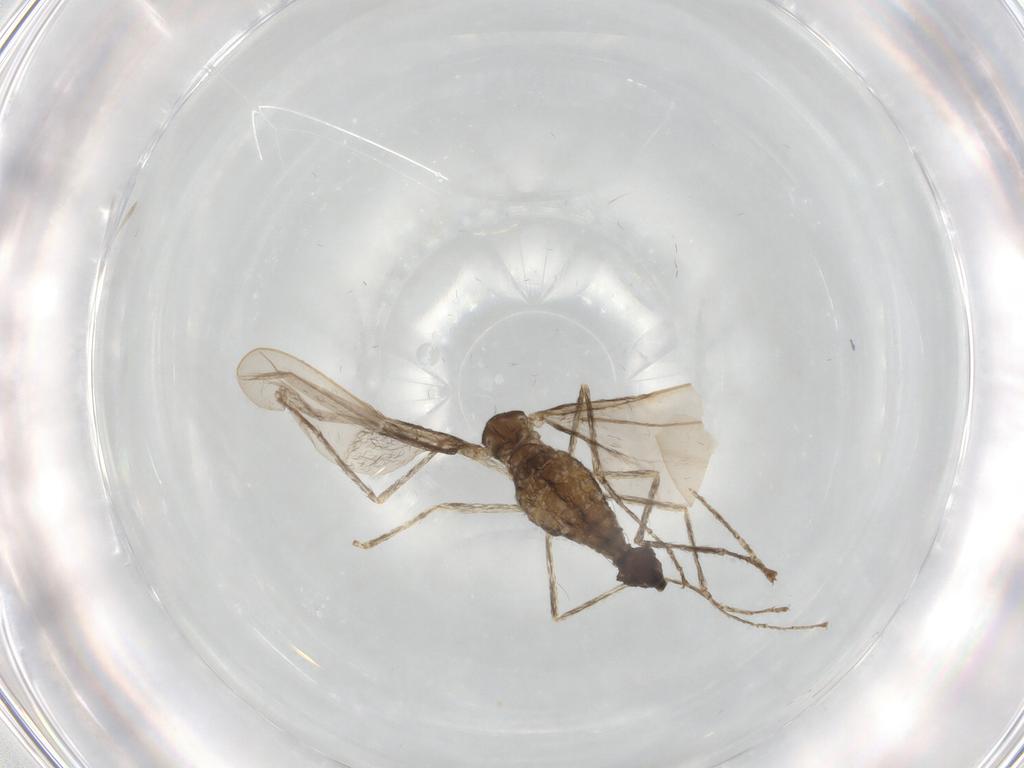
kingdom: Animalia
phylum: Arthropoda
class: Insecta
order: Diptera
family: Cecidomyiidae
